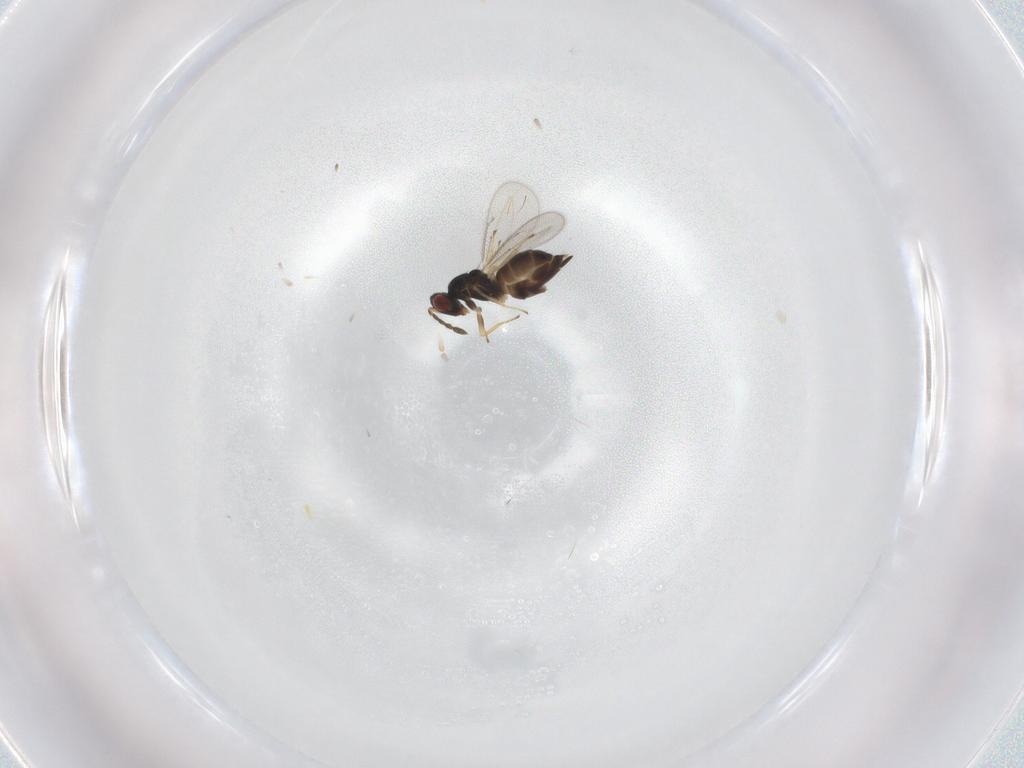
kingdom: Animalia
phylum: Arthropoda
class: Insecta
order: Hymenoptera
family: Eulophidae
